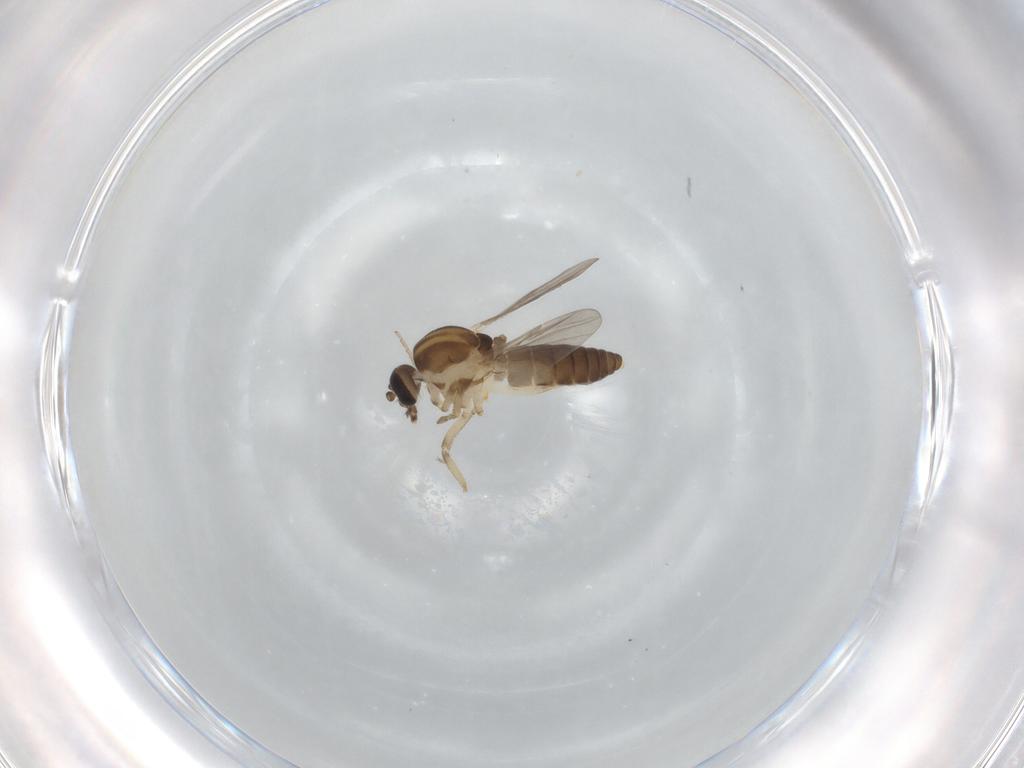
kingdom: Animalia
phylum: Arthropoda
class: Insecta
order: Diptera
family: Ceratopogonidae
